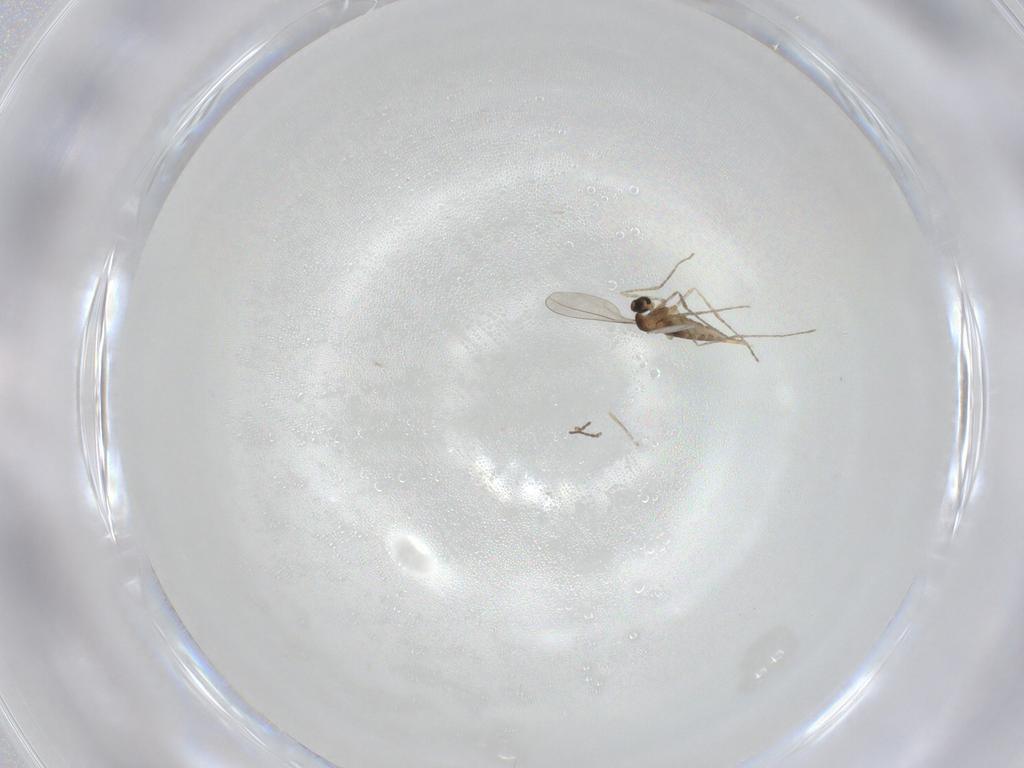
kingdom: Animalia
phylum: Arthropoda
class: Insecta
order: Diptera
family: Cecidomyiidae
